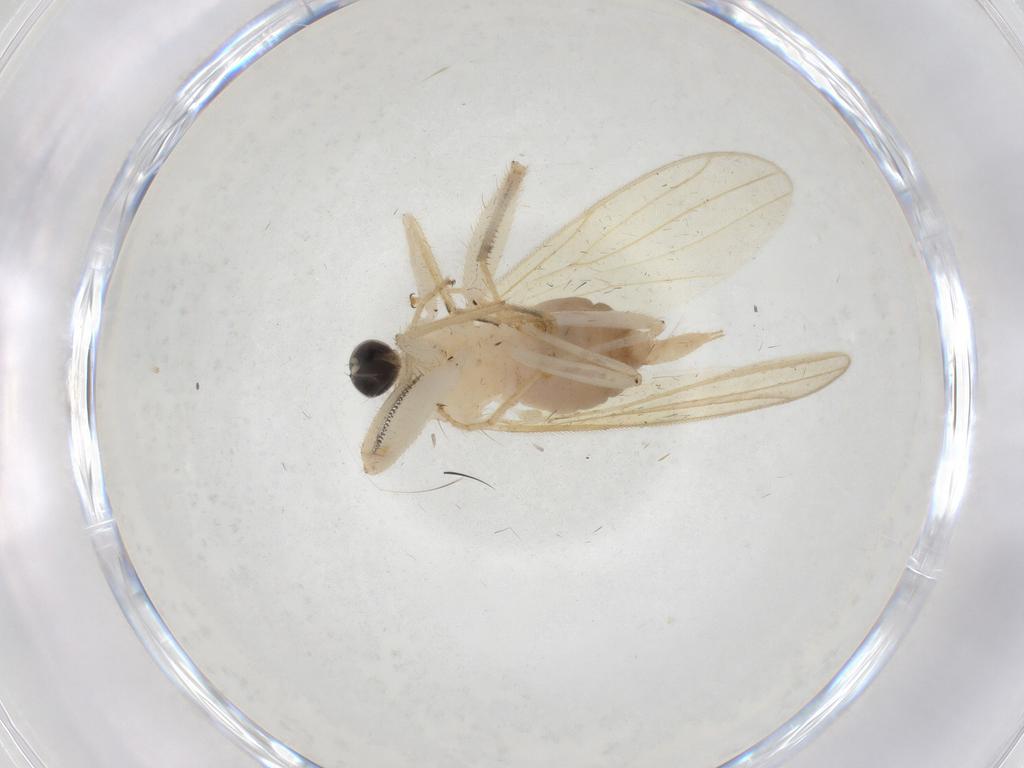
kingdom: Animalia
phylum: Arthropoda
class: Insecta
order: Diptera
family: Hybotidae
